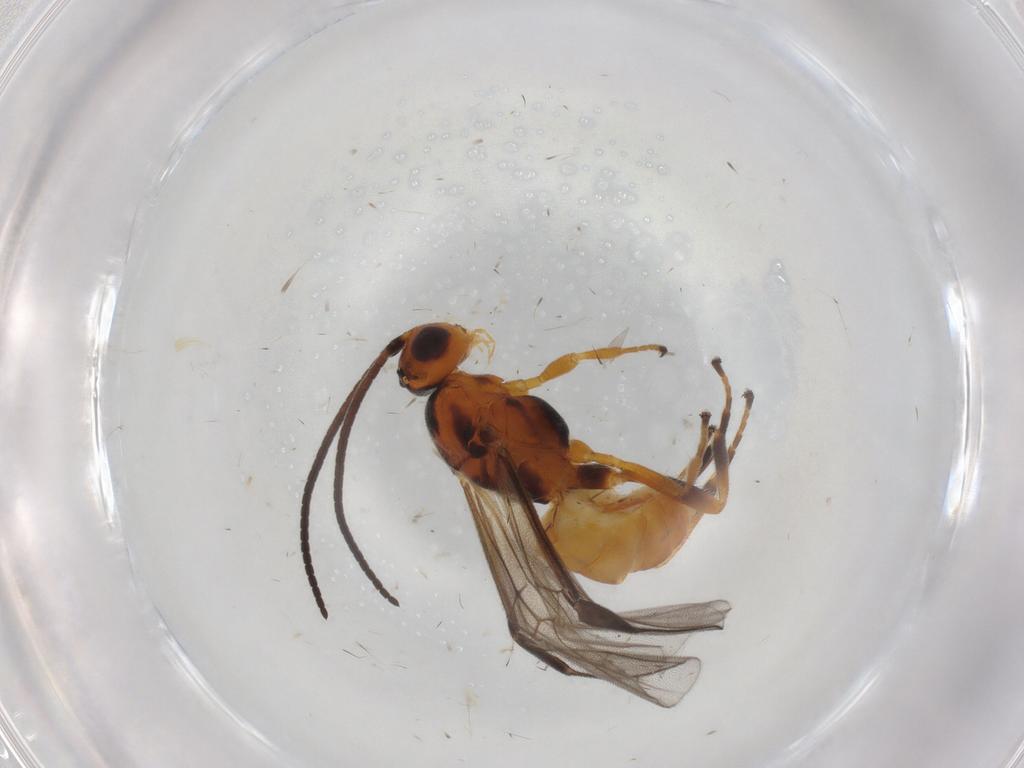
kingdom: Animalia
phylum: Arthropoda
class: Insecta
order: Hymenoptera
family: Braconidae
